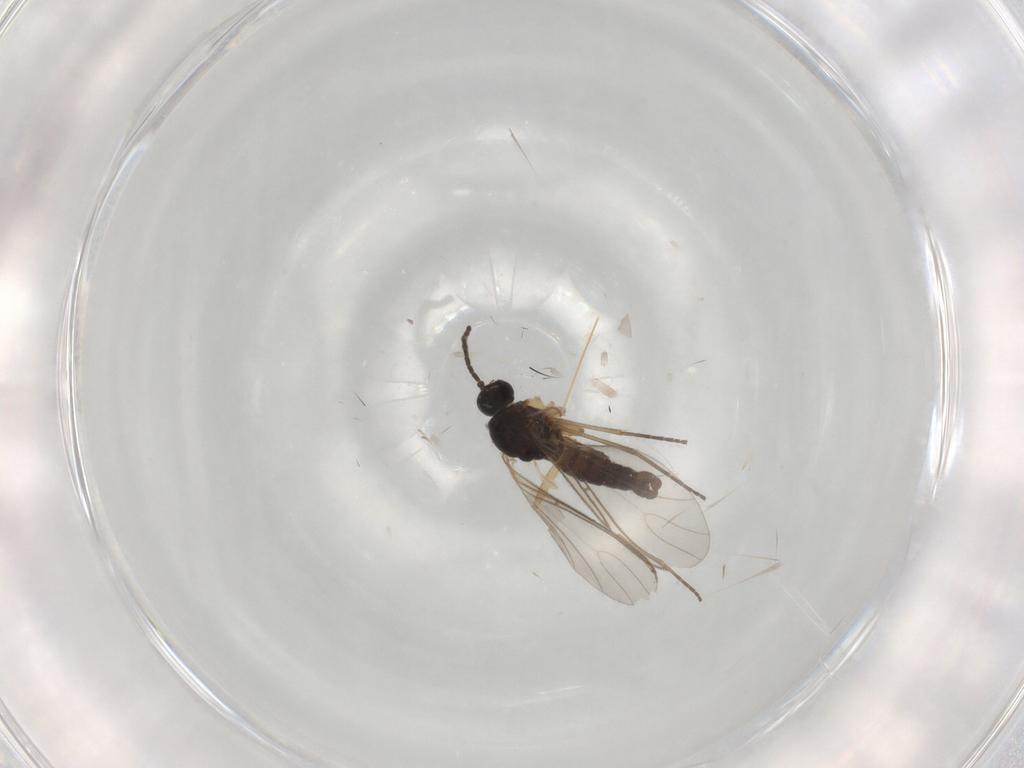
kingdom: Animalia
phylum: Arthropoda
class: Insecta
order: Diptera
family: Sciaridae
